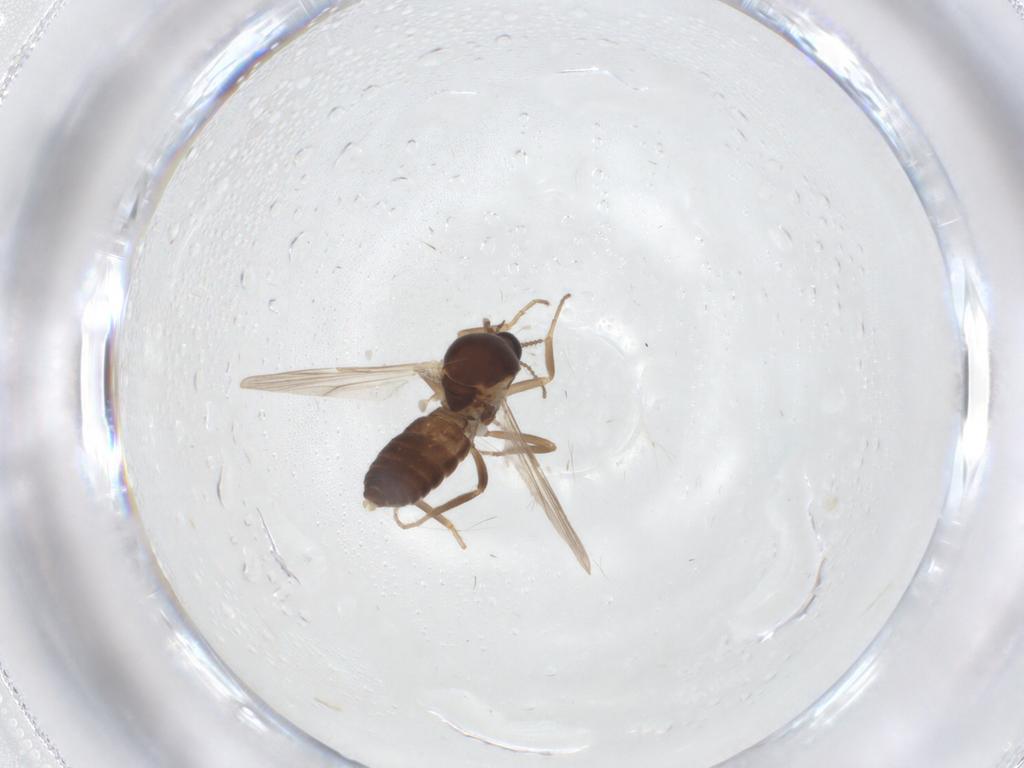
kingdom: Animalia
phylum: Arthropoda
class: Insecta
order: Diptera
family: Ceratopogonidae
